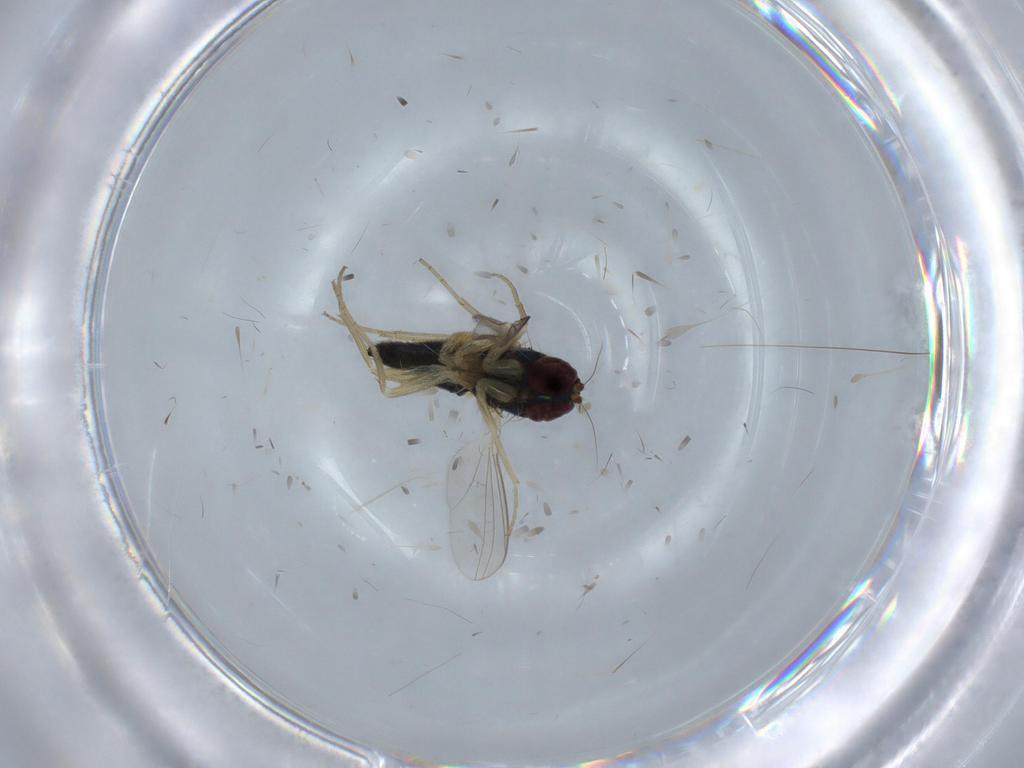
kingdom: Animalia
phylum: Arthropoda
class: Insecta
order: Diptera
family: Dolichopodidae
